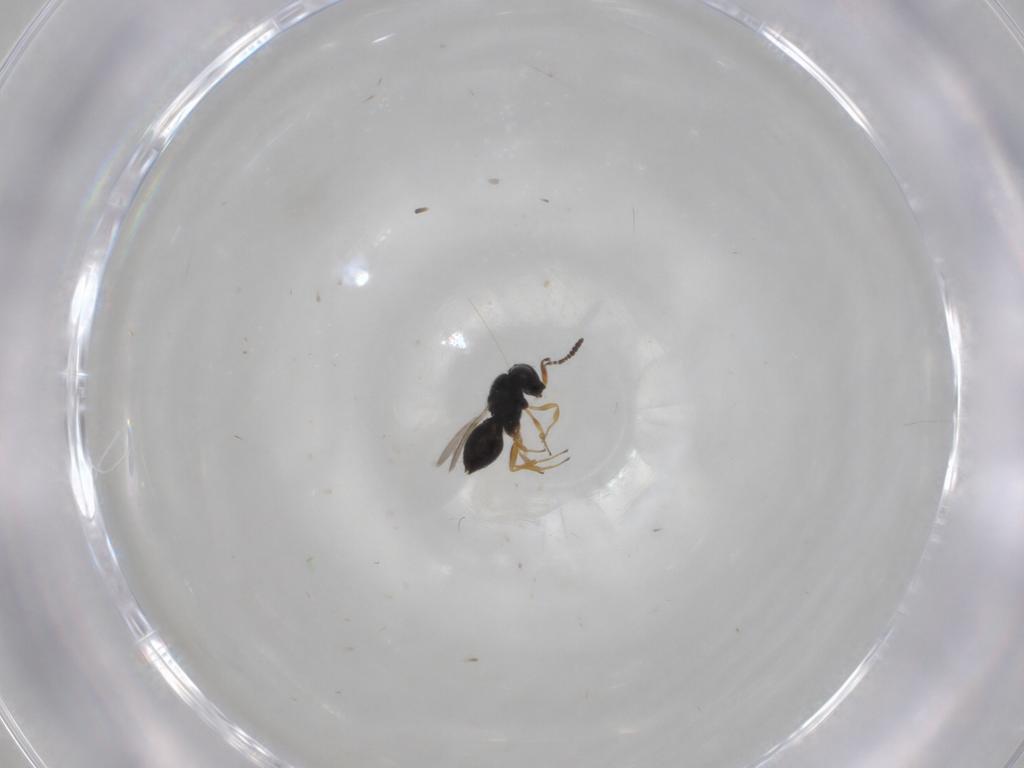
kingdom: Animalia
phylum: Arthropoda
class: Insecta
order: Hymenoptera
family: Scelionidae
